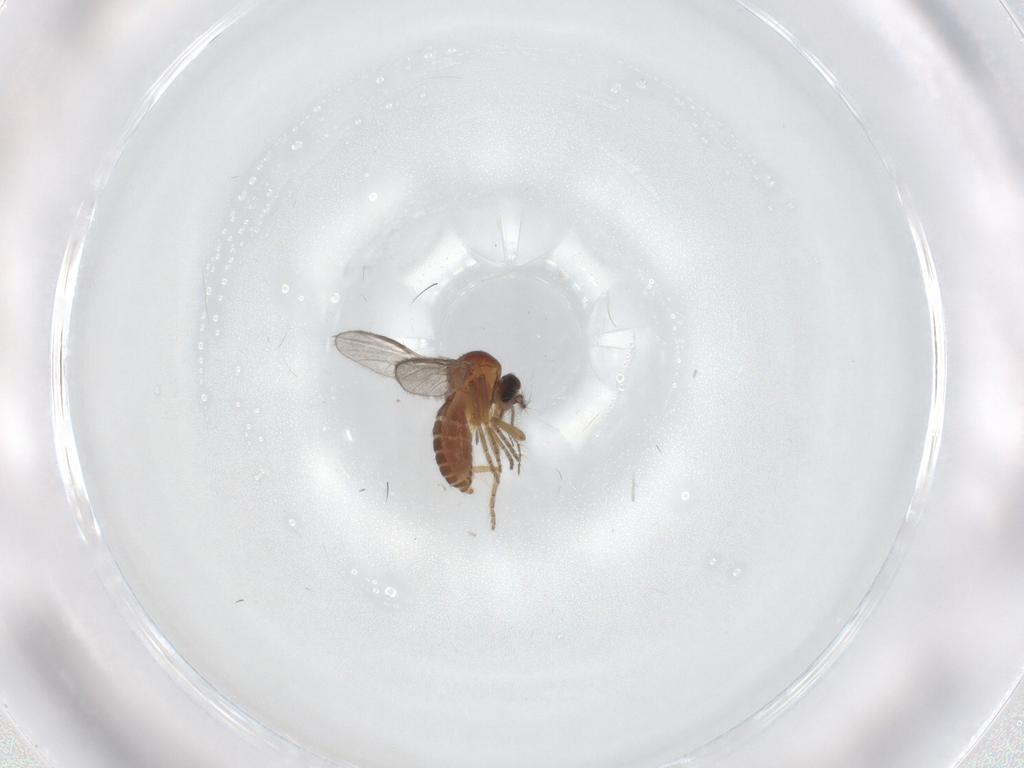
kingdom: Animalia
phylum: Arthropoda
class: Insecta
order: Diptera
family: Ceratopogonidae
